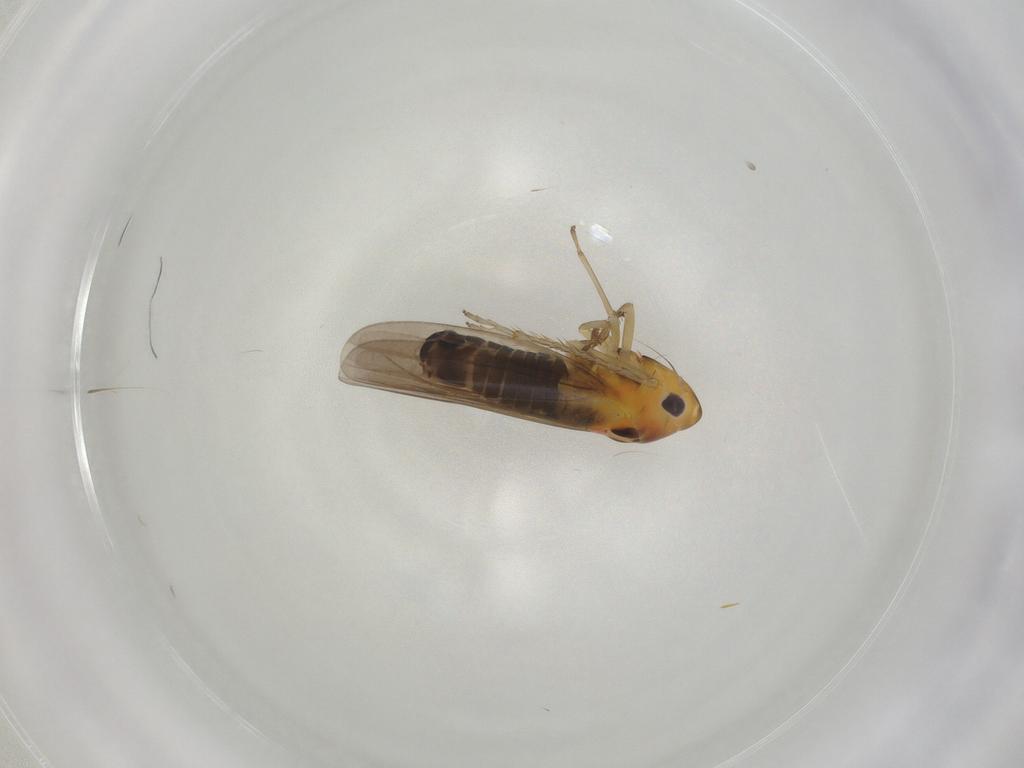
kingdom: Animalia
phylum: Arthropoda
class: Insecta
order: Hemiptera
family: Cicadellidae
